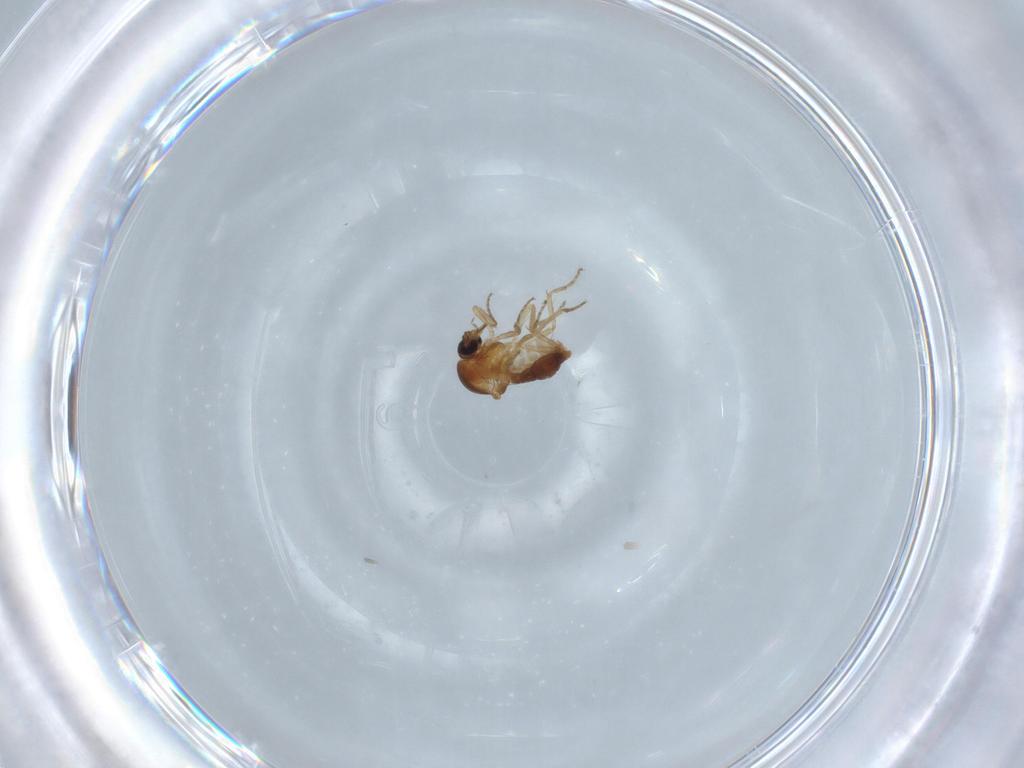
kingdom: Animalia
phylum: Arthropoda
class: Insecta
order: Diptera
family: Ceratopogonidae
